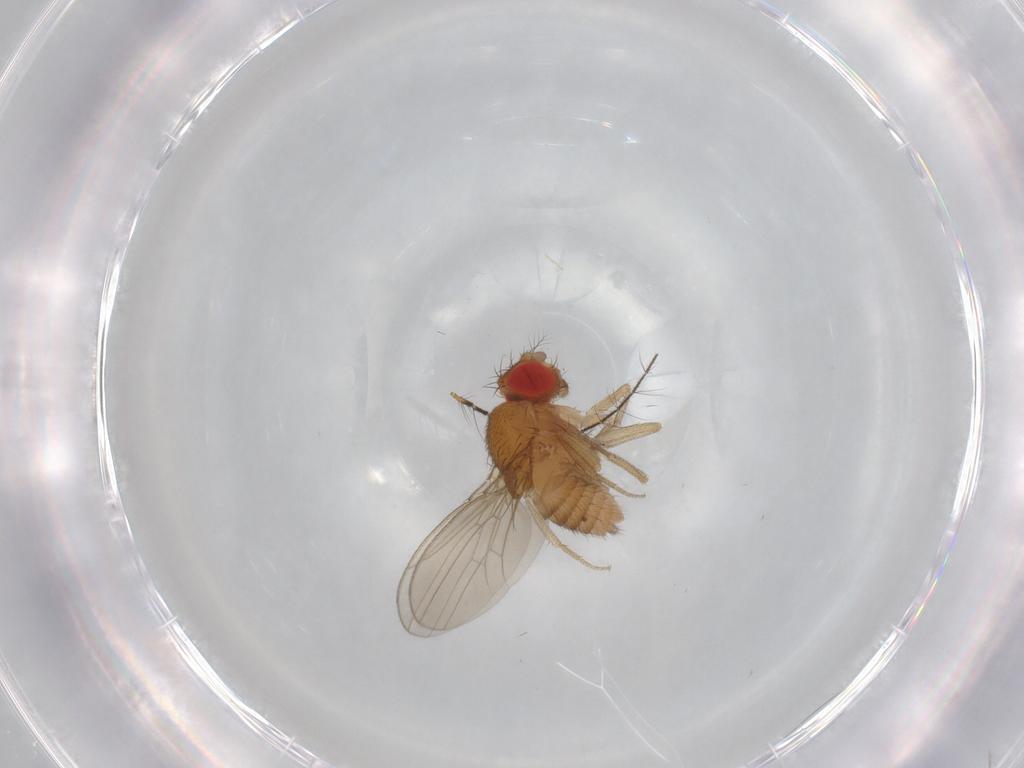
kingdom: Animalia
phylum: Arthropoda
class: Insecta
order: Diptera
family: Drosophilidae
